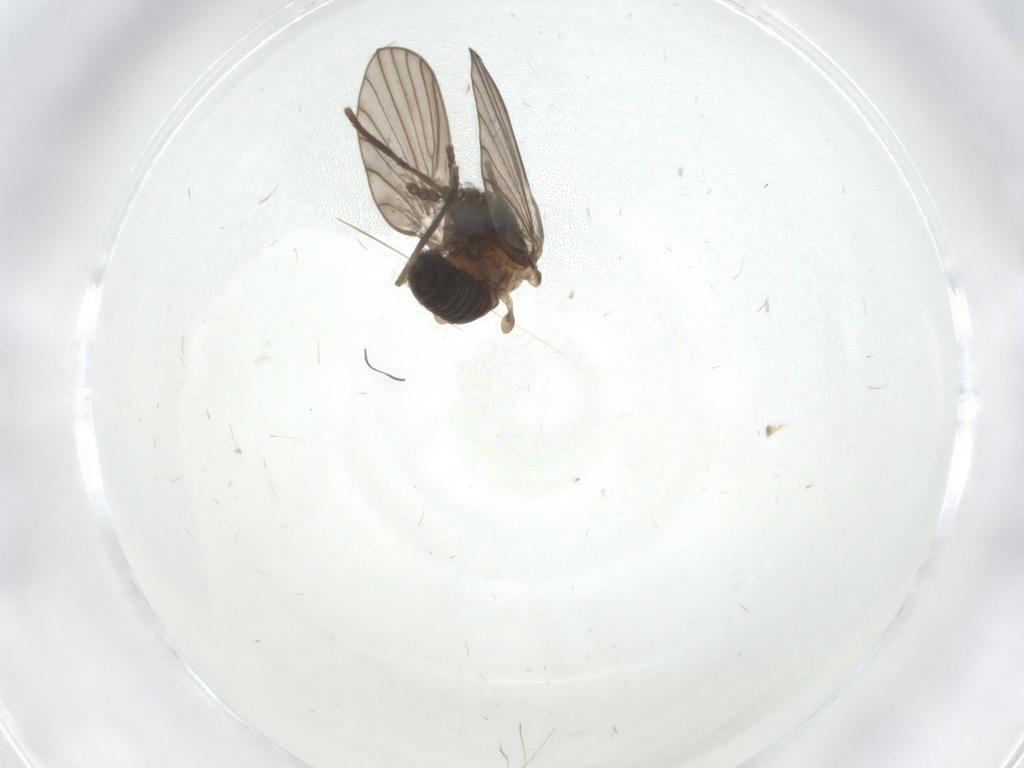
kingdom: Animalia
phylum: Arthropoda
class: Insecta
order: Diptera
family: Psychodidae
